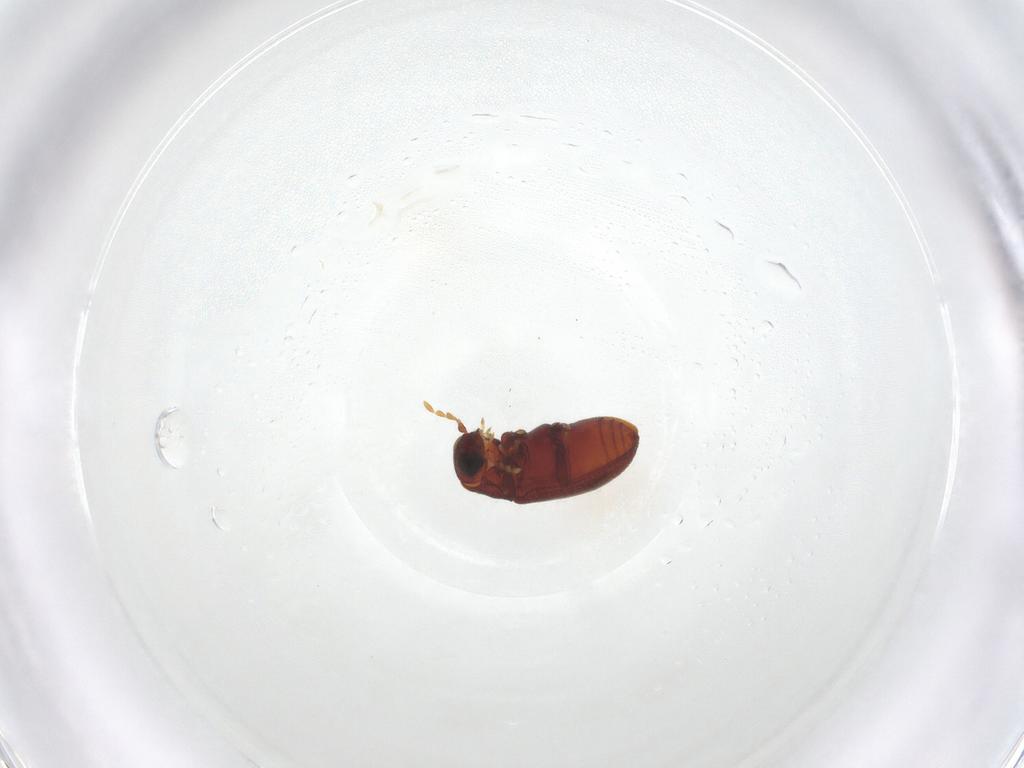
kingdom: Animalia
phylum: Arthropoda
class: Insecta
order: Coleoptera
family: Ptinidae
